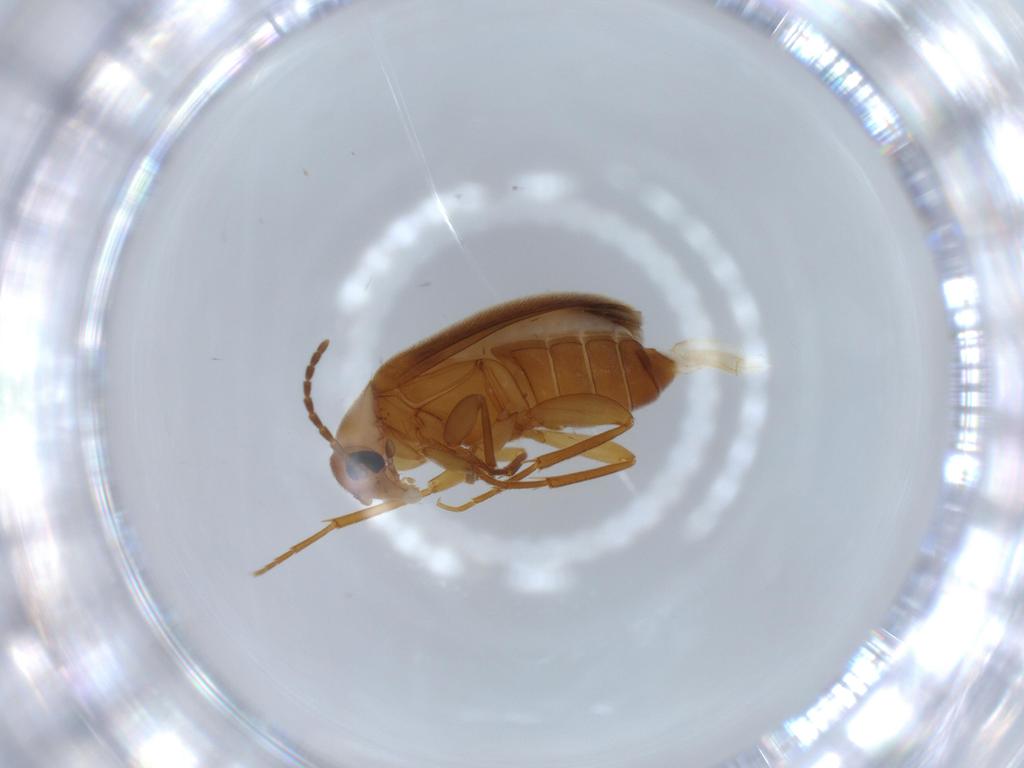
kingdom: Animalia
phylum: Arthropoda
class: Insecta
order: Coleoptera
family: Scraptiidae
